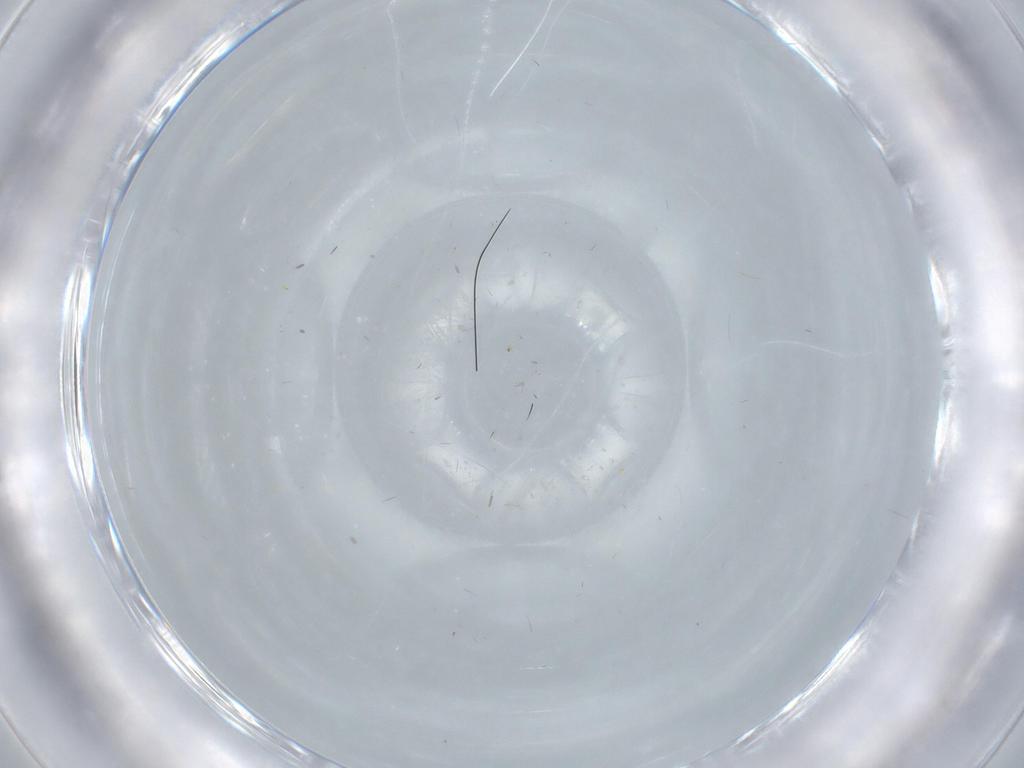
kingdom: Animalia
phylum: Arthropoda
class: Insecta
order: Diptera
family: Chironomidae
